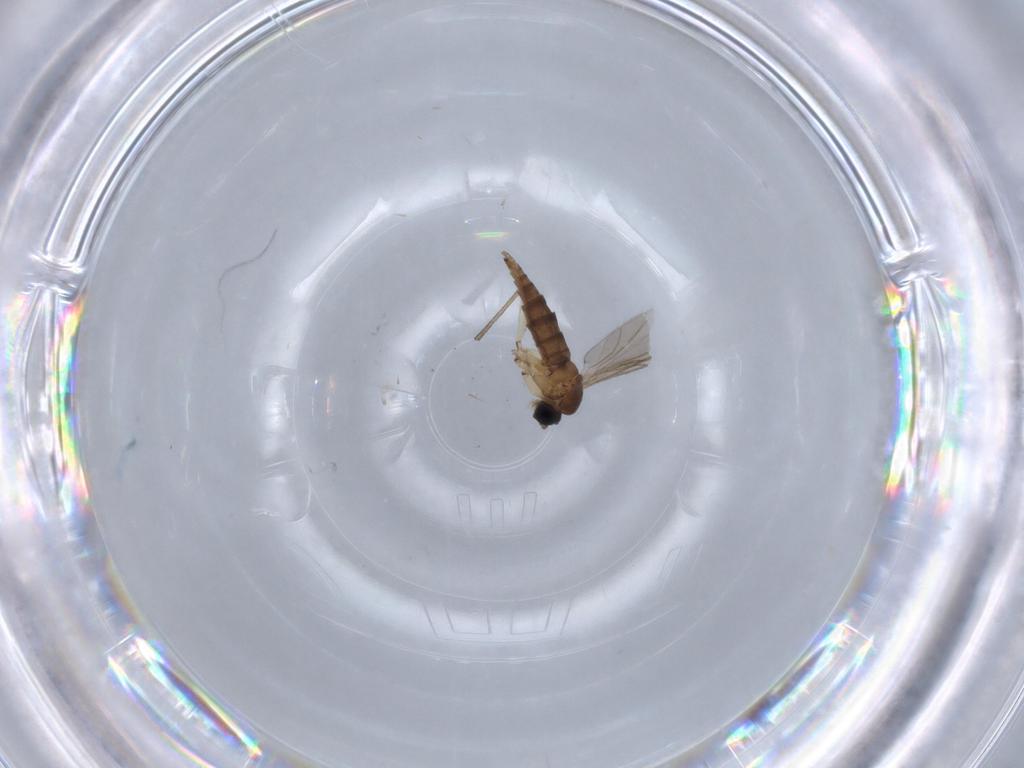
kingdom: Animalia
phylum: Arthropoda
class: Insecta
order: Diptera
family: Sciaridae
